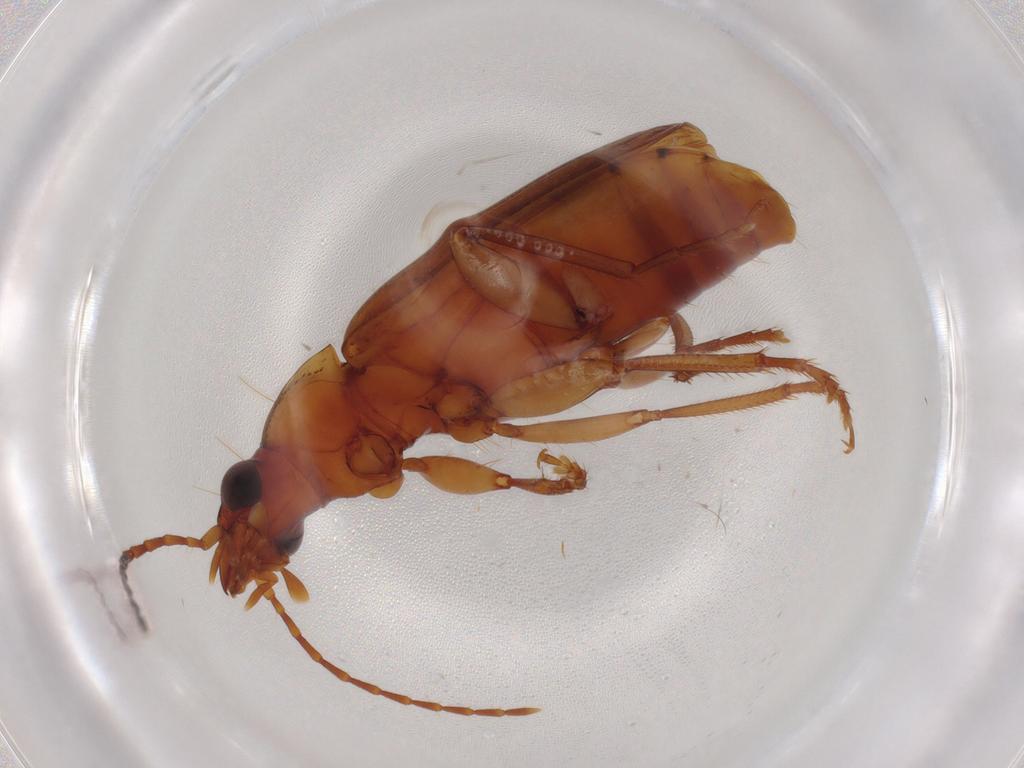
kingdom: Animalia
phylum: Arthropoda
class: Insecta
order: Coleoptera
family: Carabidae
